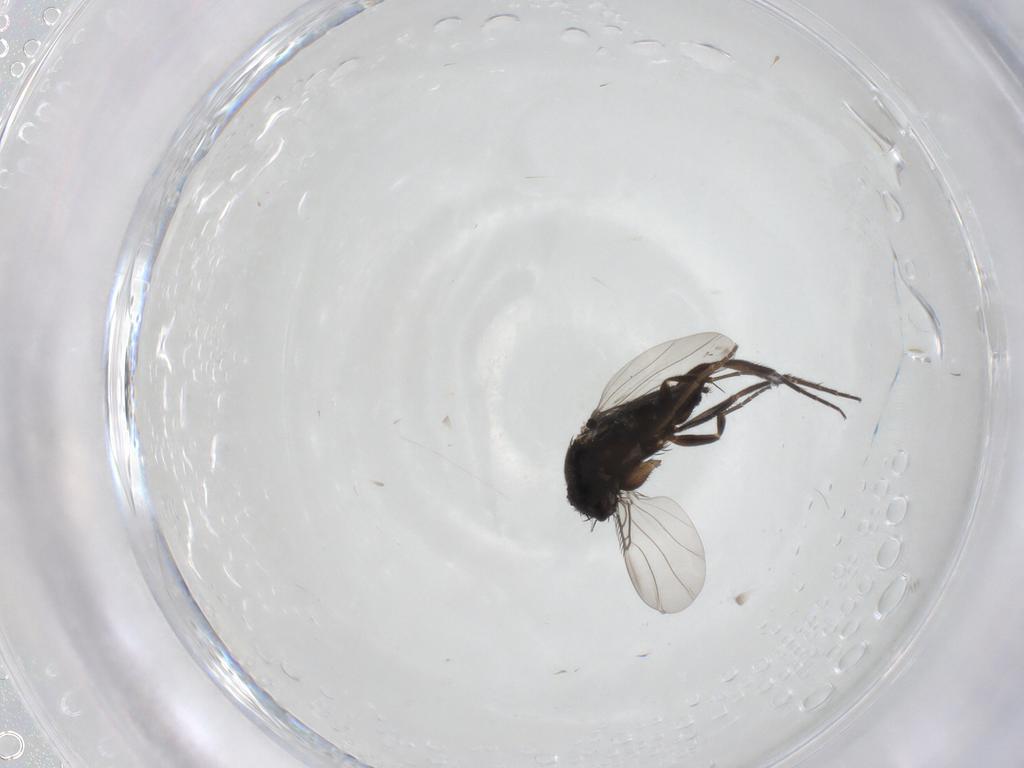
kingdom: Animalia
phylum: Arthropoda
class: Insecta
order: Diptera
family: Phoridae
